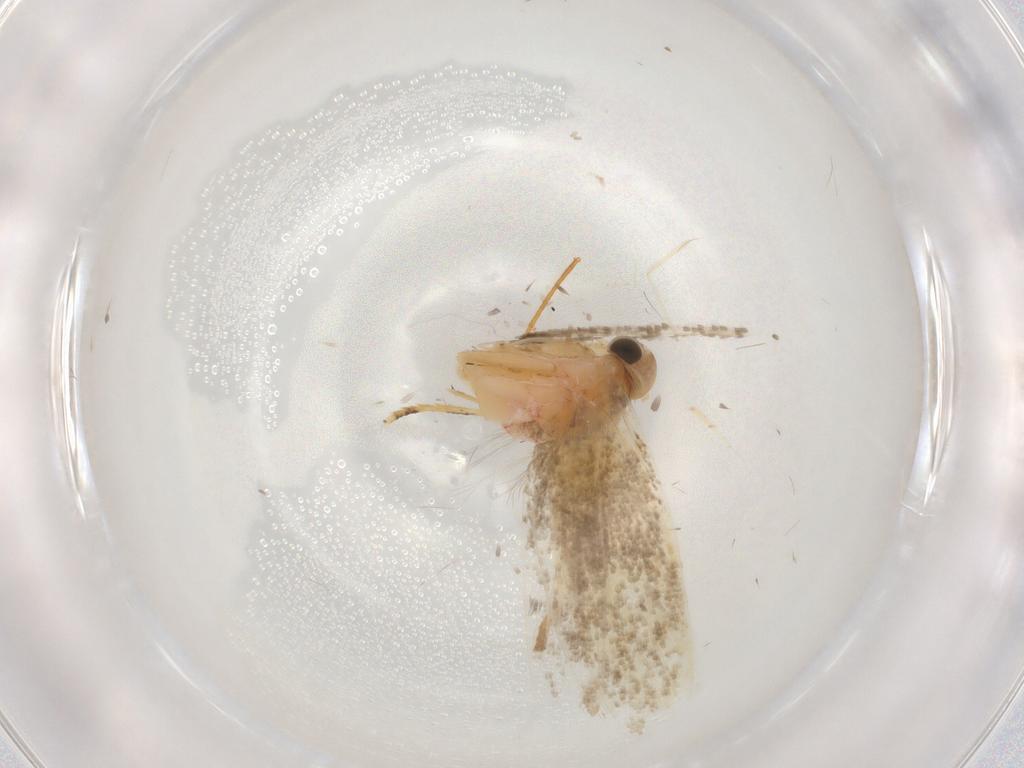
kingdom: Animalia
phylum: Arthropoda
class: Insecta
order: Lepidoptera
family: Autostichidae
